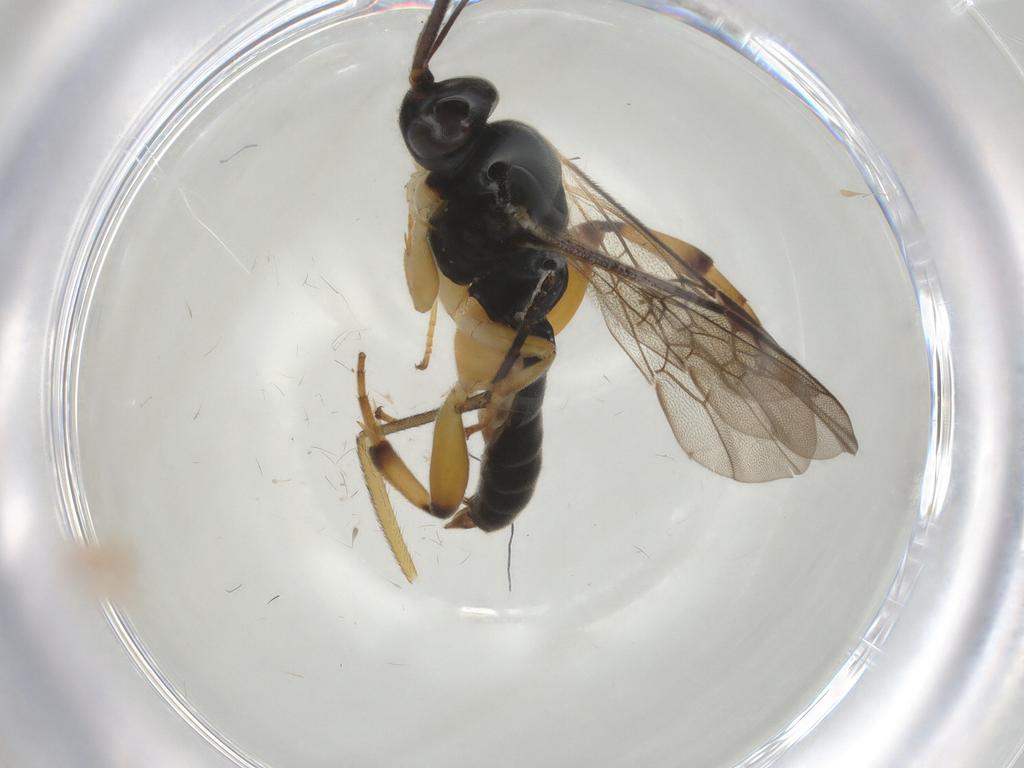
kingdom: Animalia
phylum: Arthropoda
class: Insecta
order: Hymenoptera
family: Ichneumonidae
